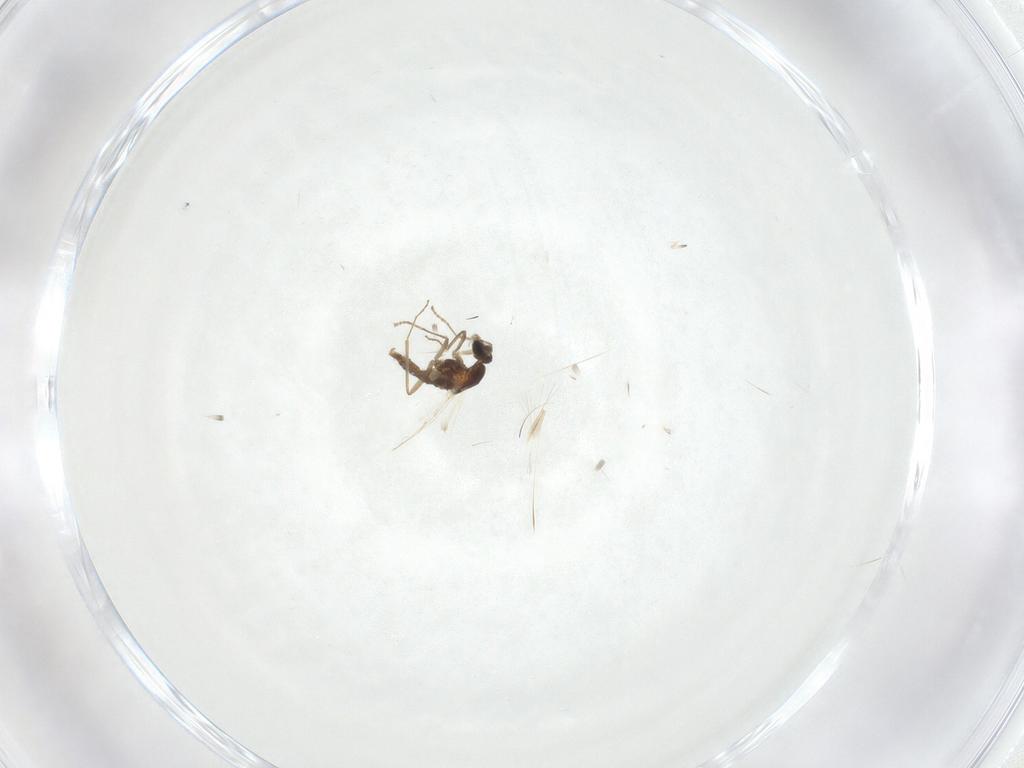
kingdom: Animalia
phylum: Arthropoda
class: Insecta
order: Diptera
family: Cecidomyiidae
